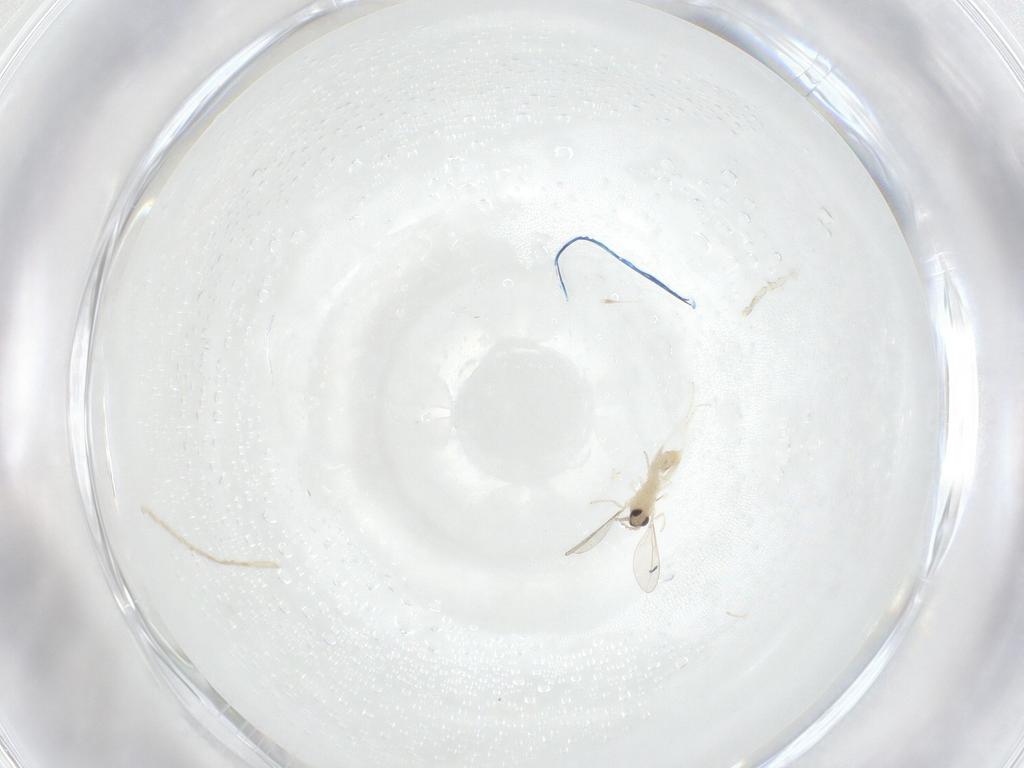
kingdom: Animalia
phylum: Arthropoda
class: Insecta
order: Diptera
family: Cecidomyiidae
